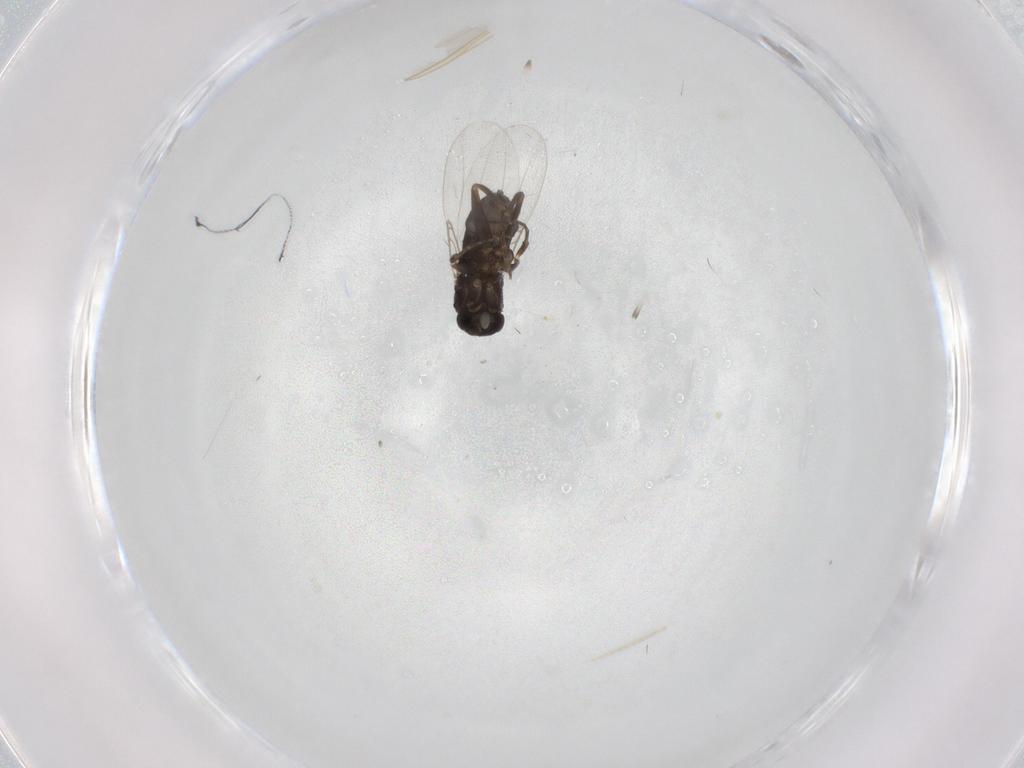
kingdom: Animalia
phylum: Arthropoda
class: Insecta
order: Diptera
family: Phoridae
